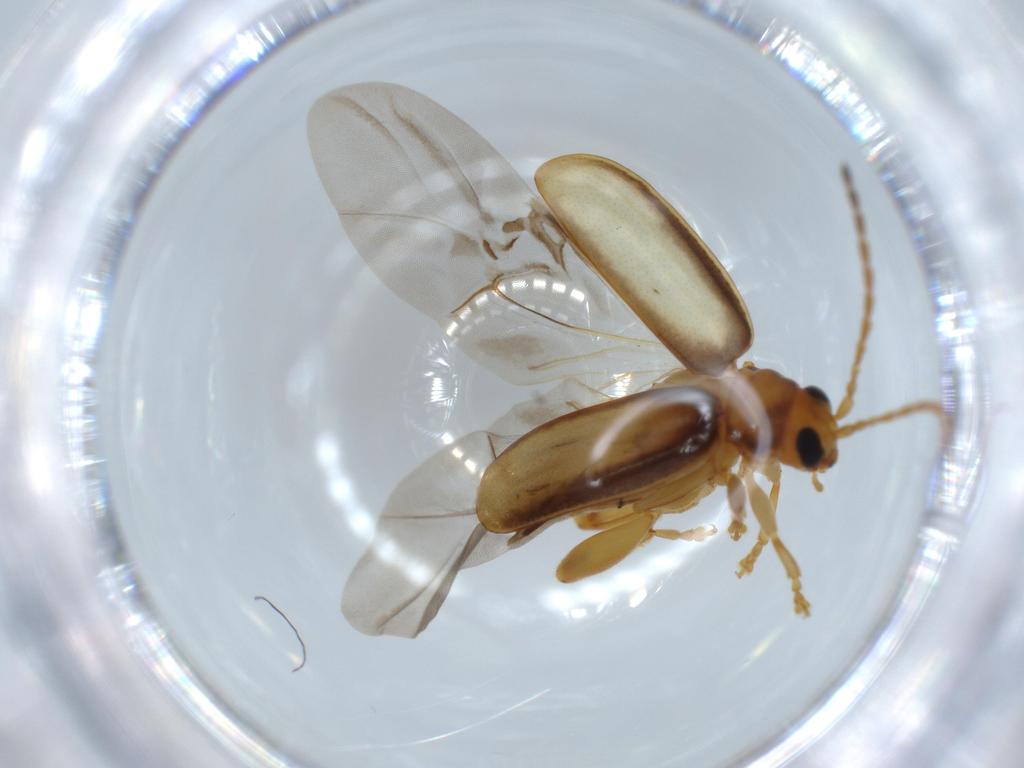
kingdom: Animalia
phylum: Arthropoda
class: Insecta
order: Coleoptera
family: Chrysomelidae
